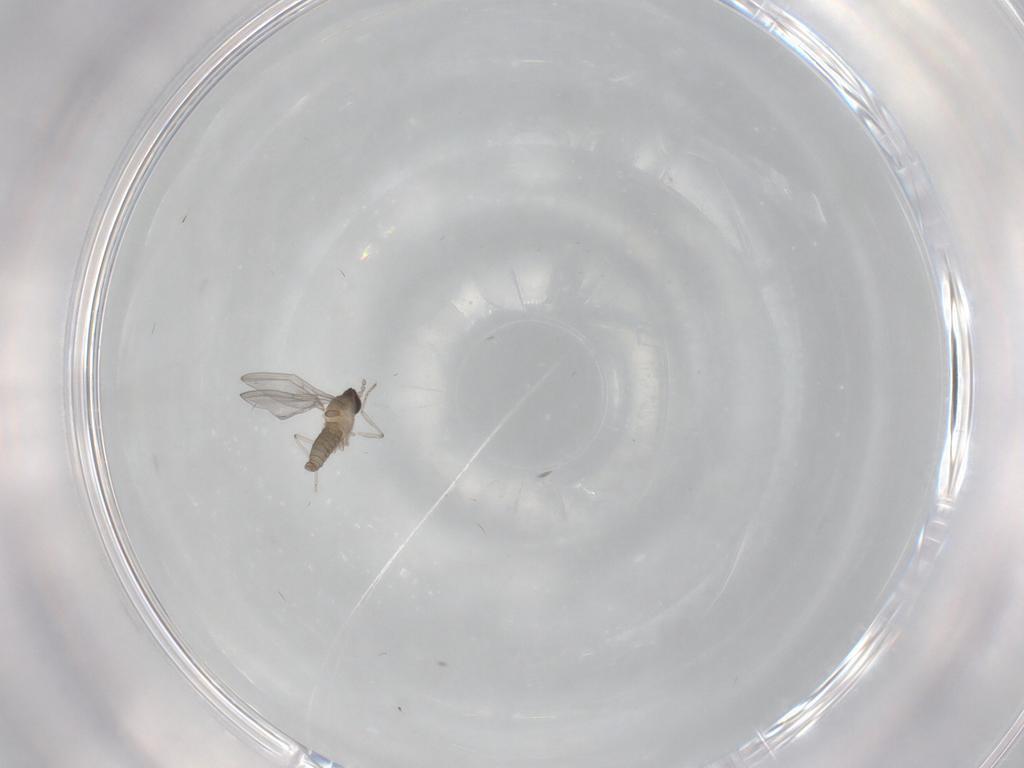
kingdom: Animalia
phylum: Arthropoda
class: Insecta
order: Diptera
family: Cecidomyiidae
